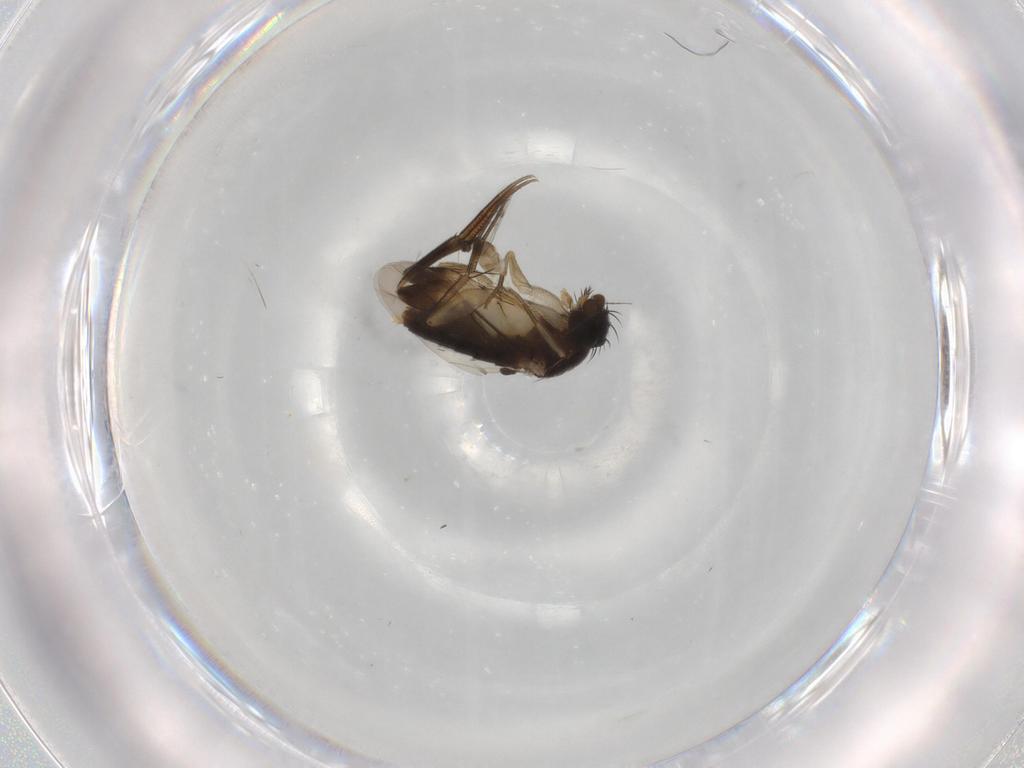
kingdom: Animalia
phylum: Arthropoda
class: Insecta
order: Diptera
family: Phoridae
